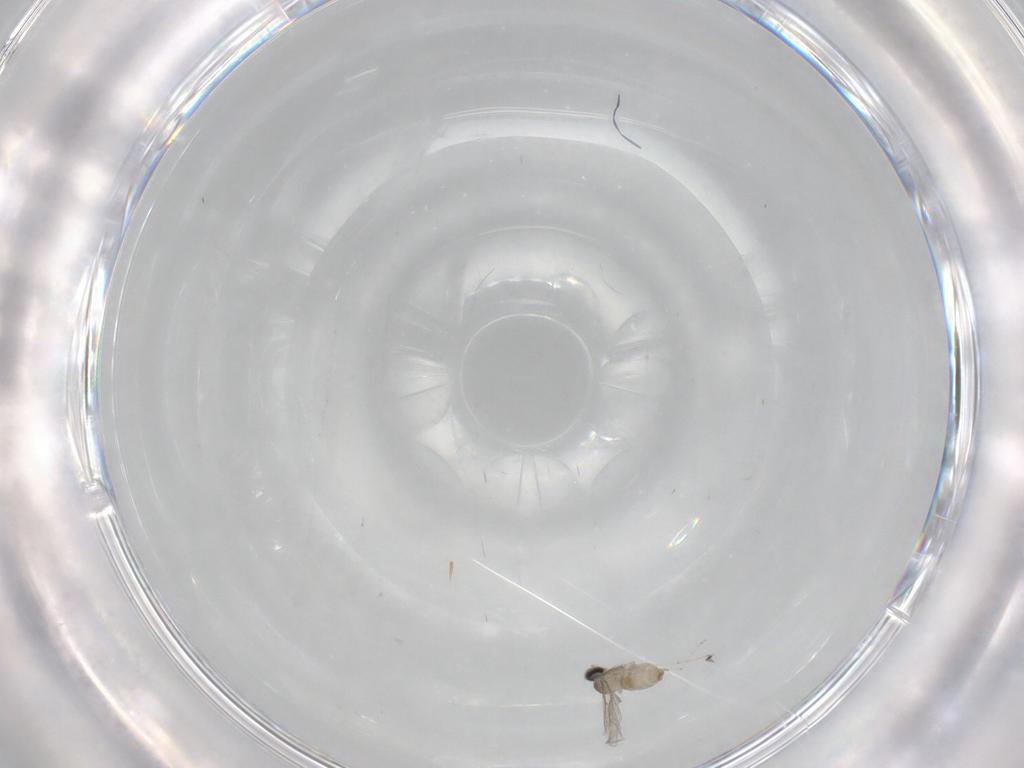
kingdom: Animalia
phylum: Arthropoda
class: Insecta
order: Diptera
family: Cecidomyiidae
